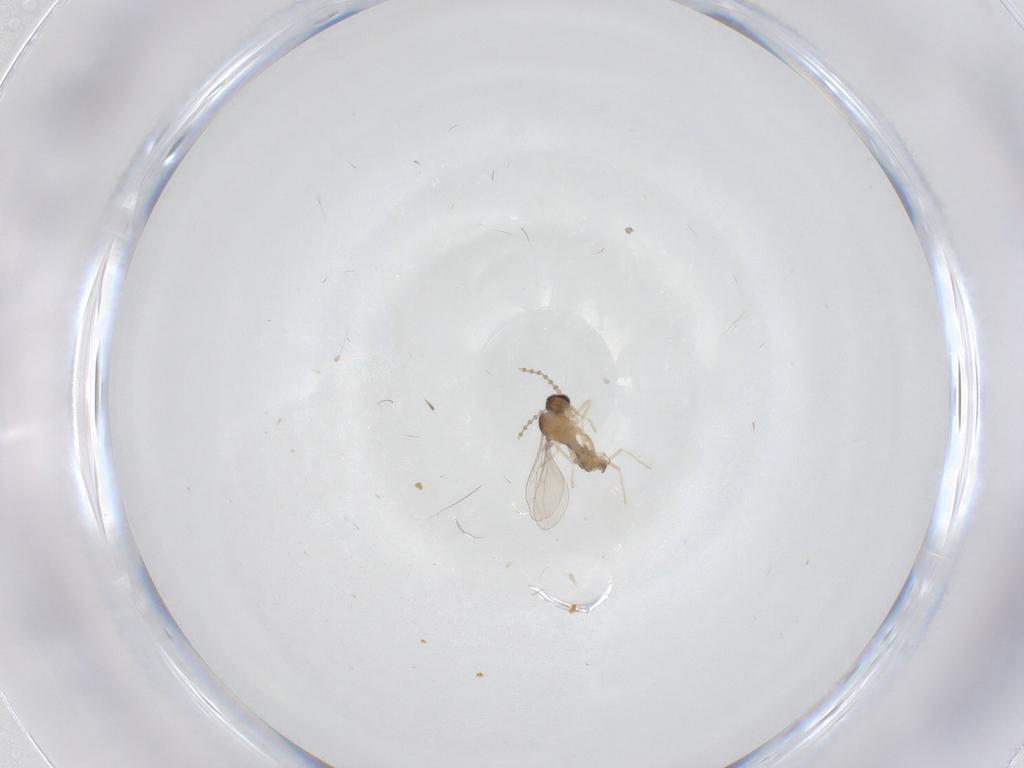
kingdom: Animalia
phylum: Arthropoda
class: Insecta
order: Diptera
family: Cecidomyiidae
